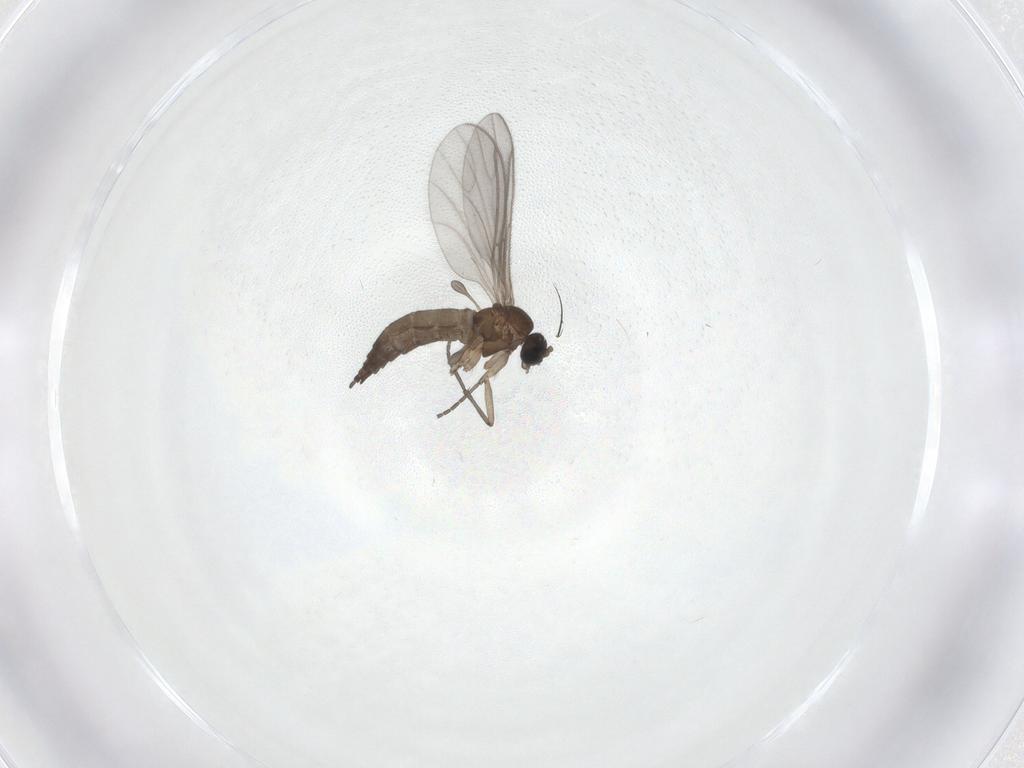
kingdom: Animalia
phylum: Arthropoda
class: Insecta
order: Diptera
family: Sciaridae
